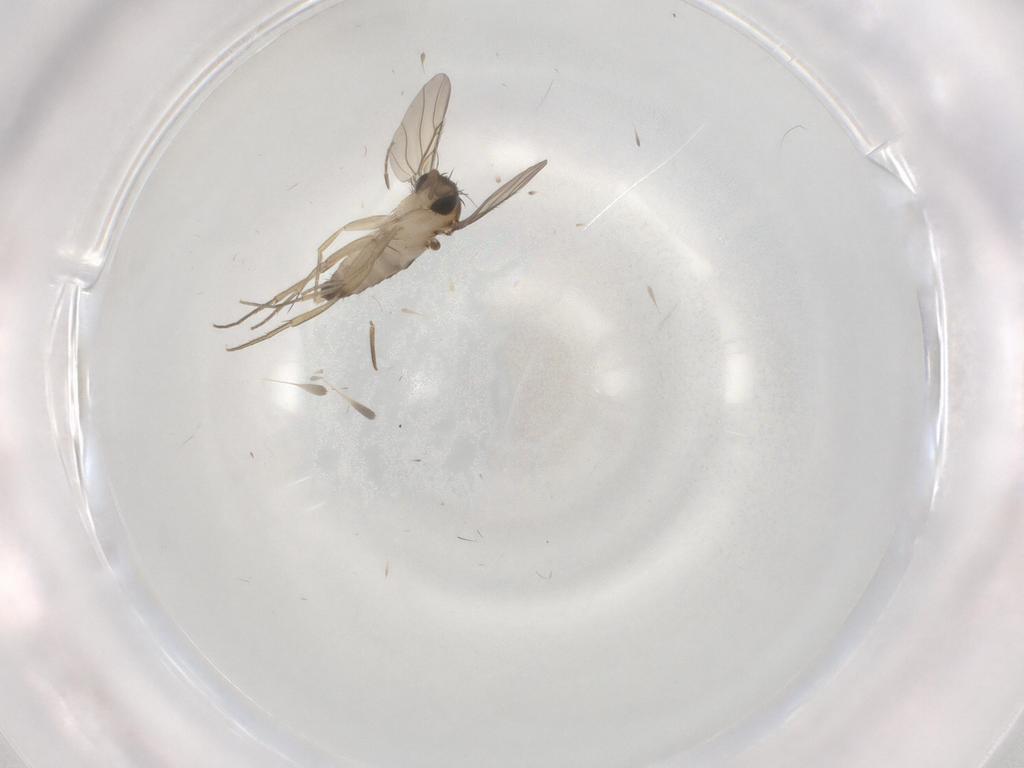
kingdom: Animalia
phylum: Arthropoda
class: Insecta
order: Diptera
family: Phoridae
